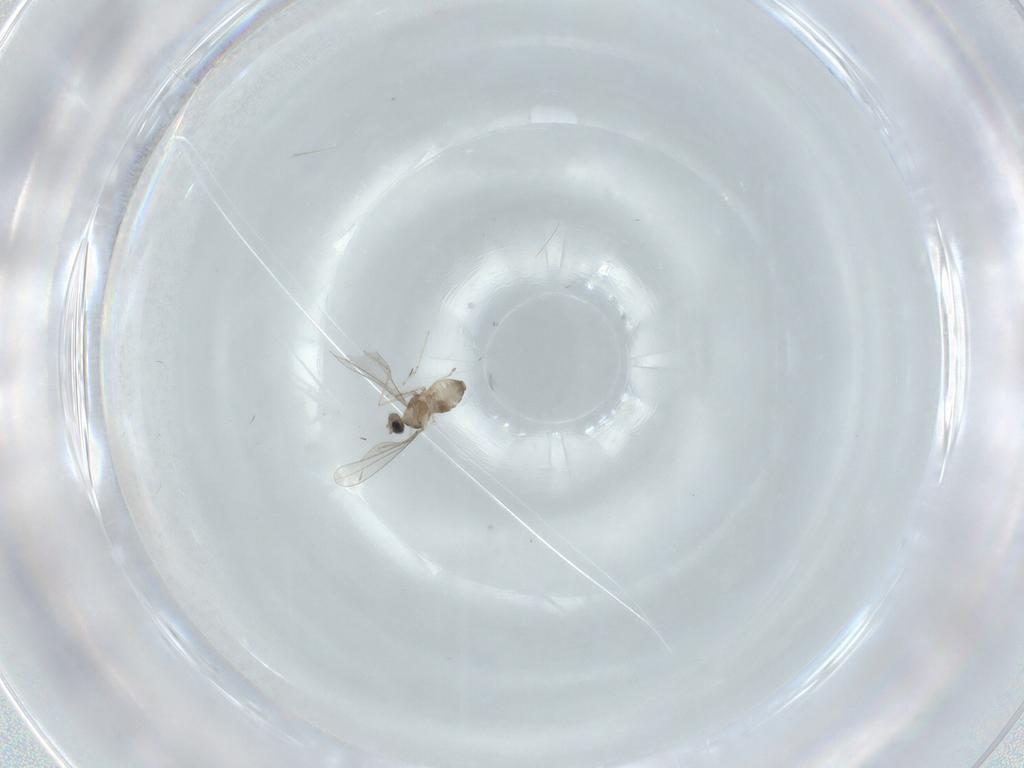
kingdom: Animalia
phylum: Arthropoda
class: Insecta
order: Diptera
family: Cecidomyiidae
